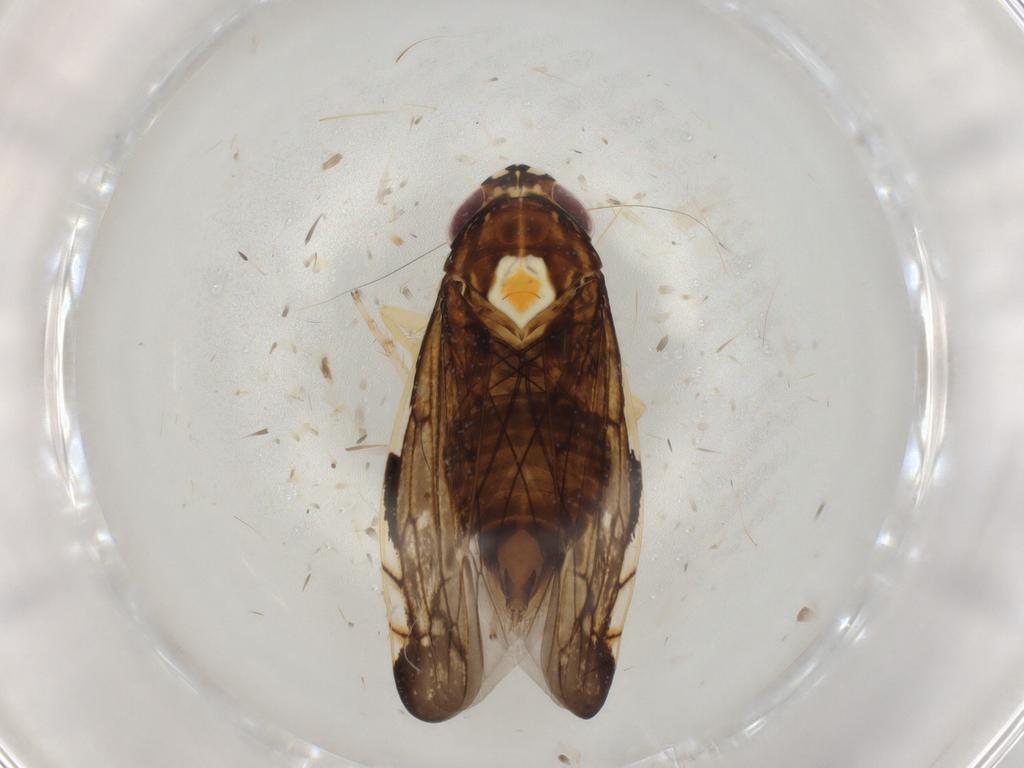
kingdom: Animalia
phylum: Arthropoda
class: Insecta
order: Hemiptera
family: Cicadellidae
